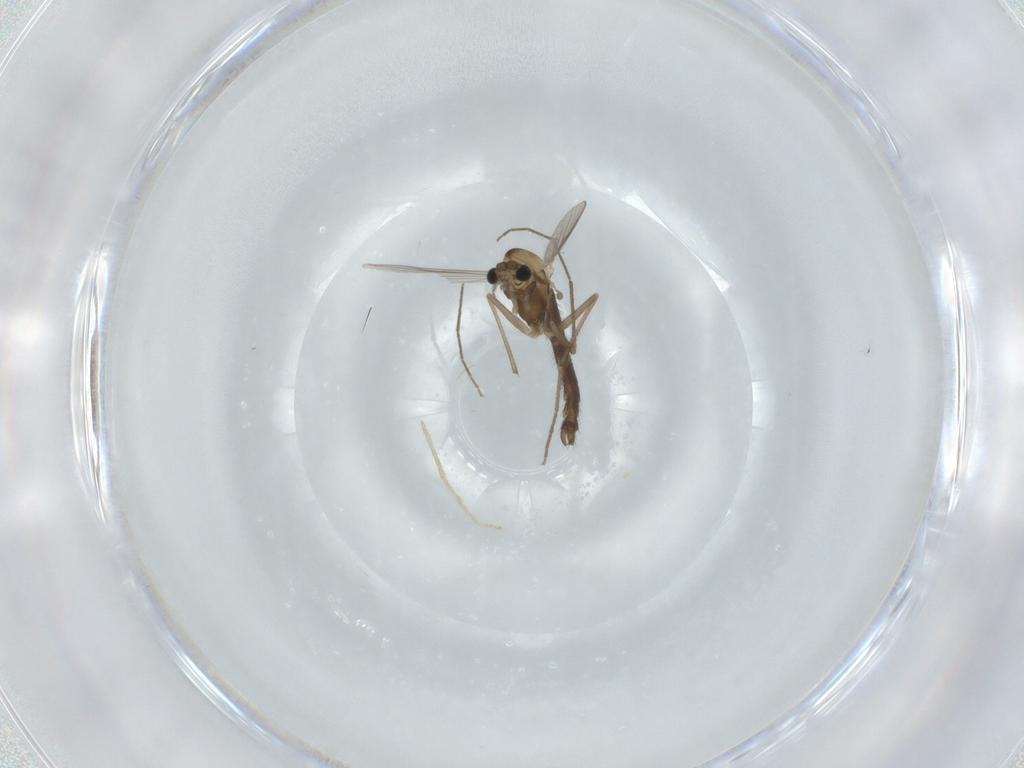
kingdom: Animalia
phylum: Arthropoda
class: Insecta
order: Diptera
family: Chironomidae
